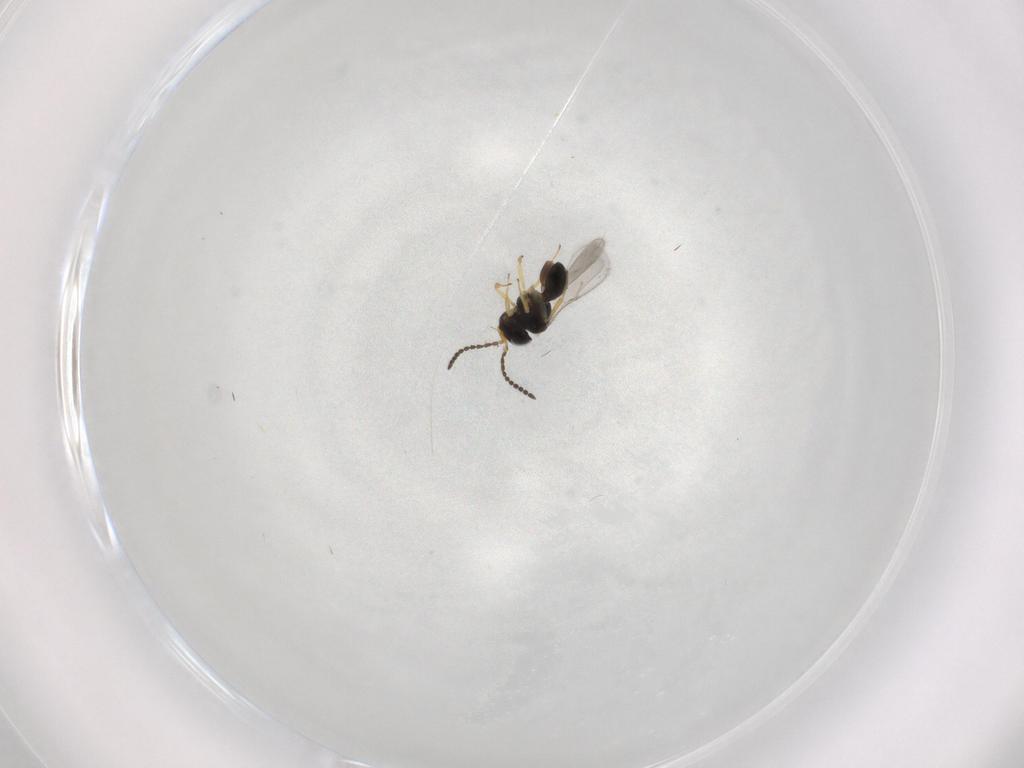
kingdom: Animalia
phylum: Arthropoda
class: Insecta
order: Hymenoptera
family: Scelionidae
